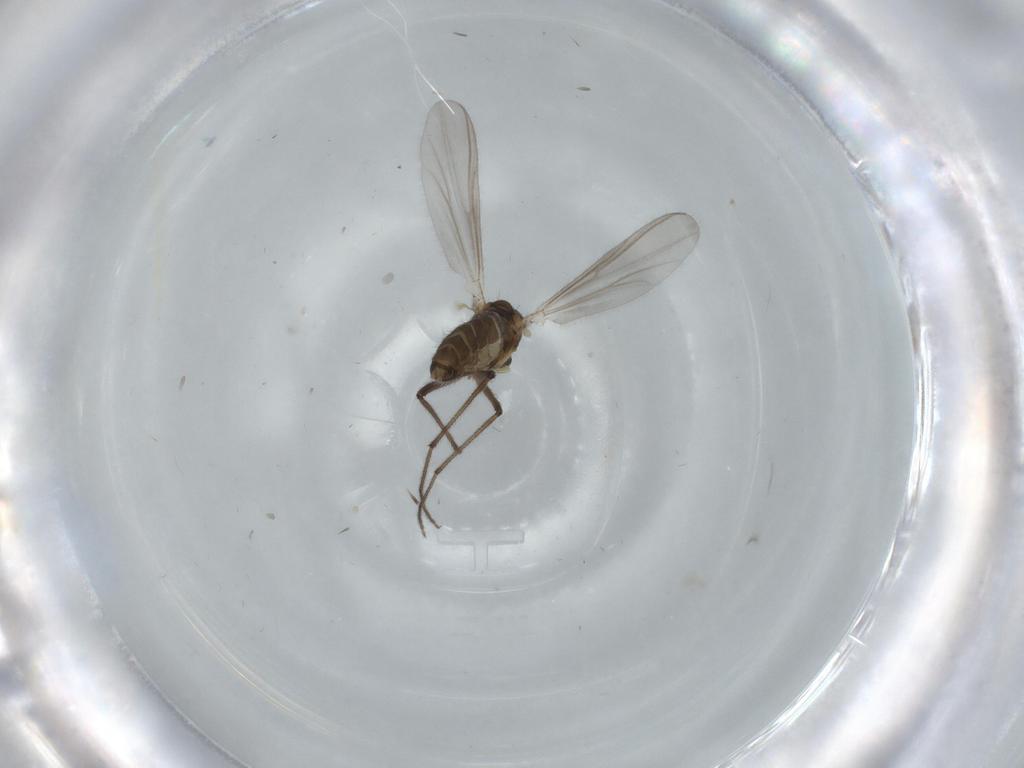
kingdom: Animalia
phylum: Arthropoda
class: Insecta
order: Diptera
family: Chironomidae
